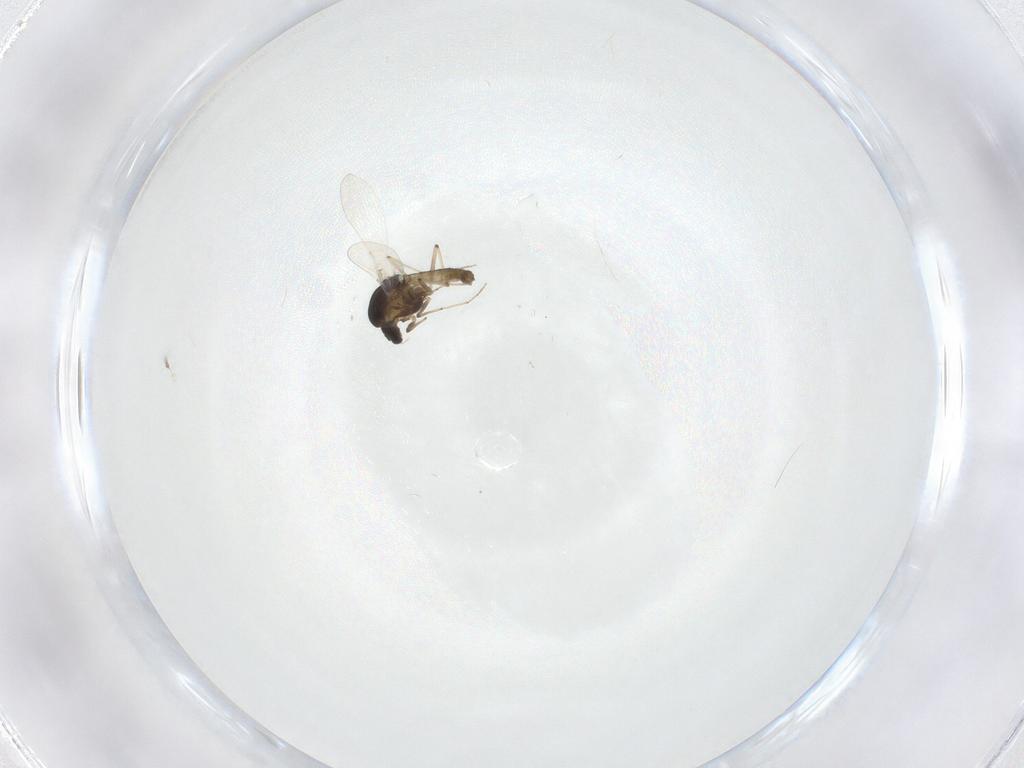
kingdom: Animalia
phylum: Arthropoda
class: Insecta
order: Diptera
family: Chironomidae
